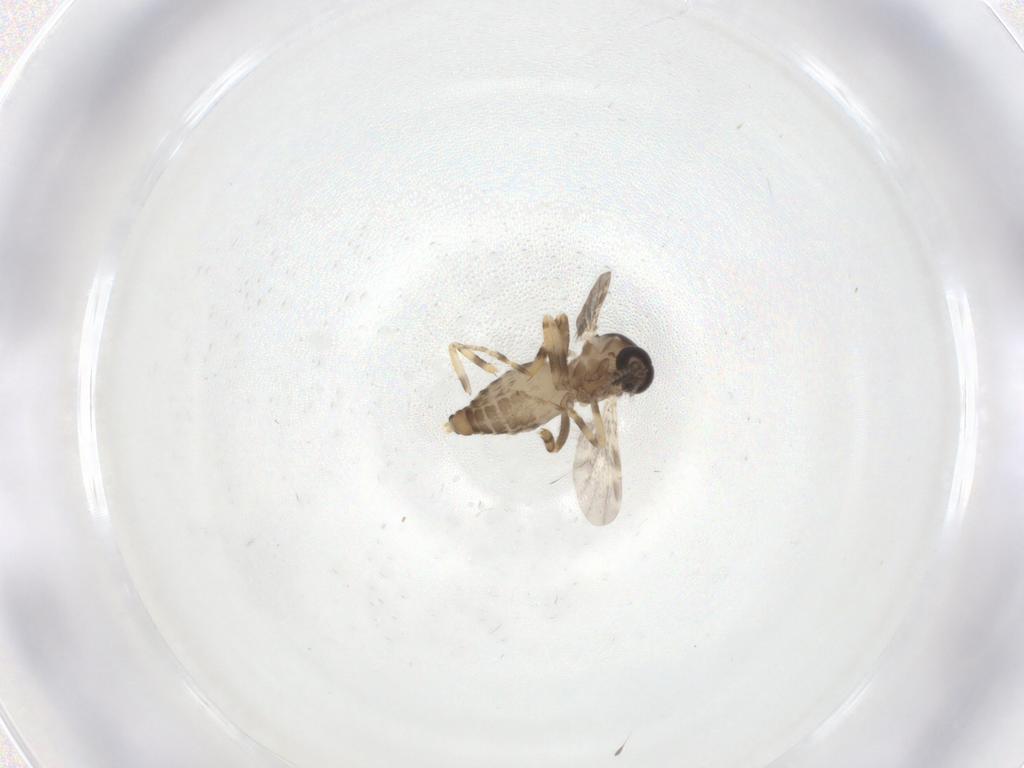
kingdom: Animalia
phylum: Arthropoda
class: Insecta
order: Diptera
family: Ceratopogonidae
